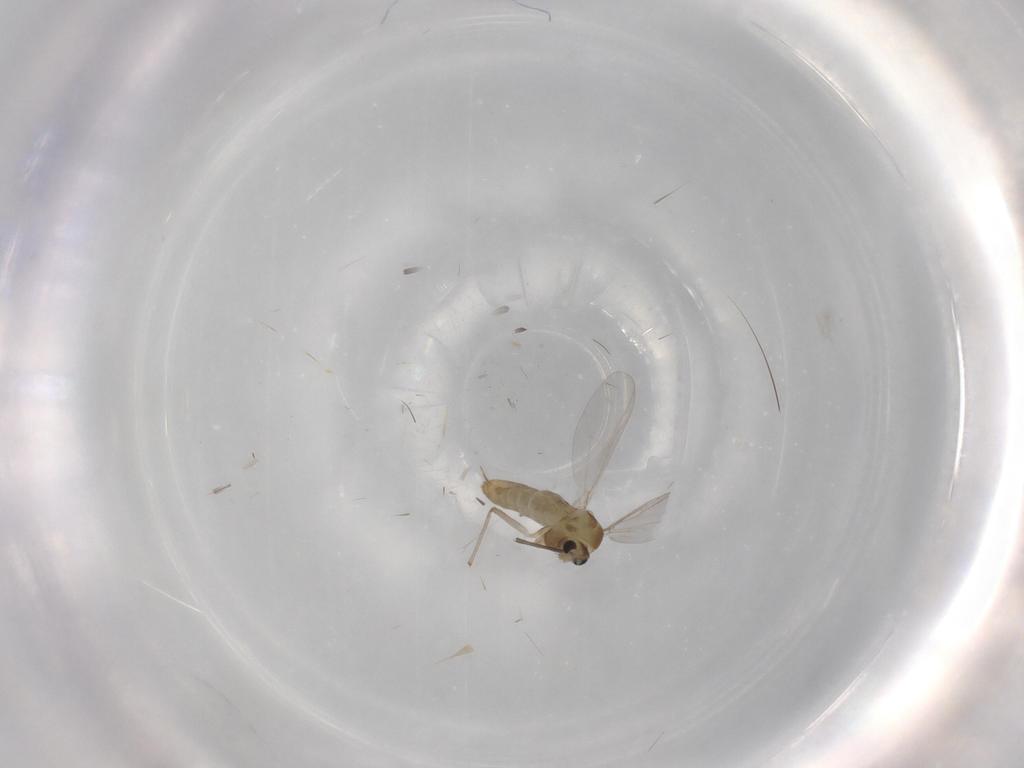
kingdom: Animalia
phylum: Arthropoda
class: Insecta
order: Diptera
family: Chironomidae
